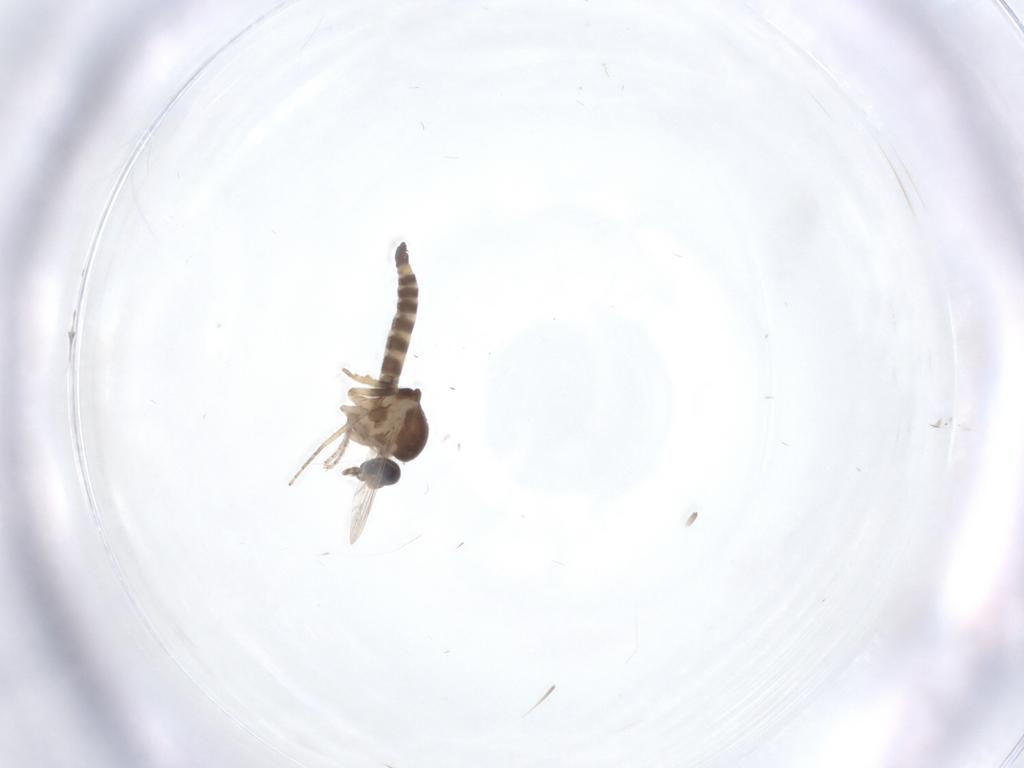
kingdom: Animalia
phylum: Arthropoda
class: Insecta
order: Diptera
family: Ceratopogonidae
